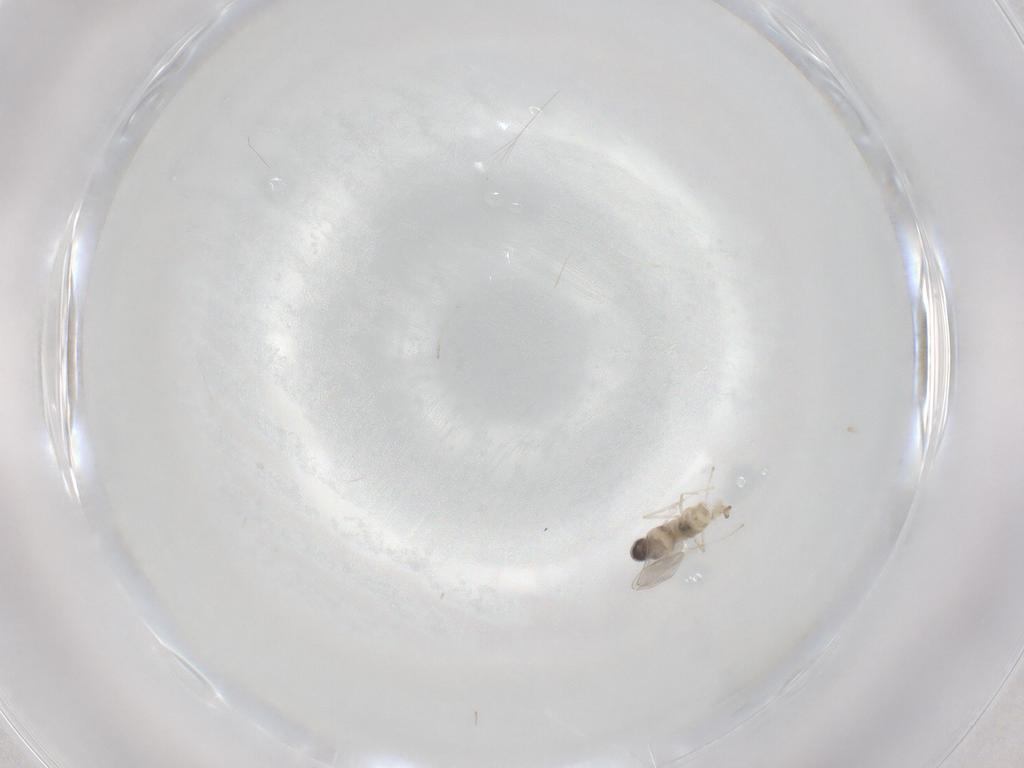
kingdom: Animalia
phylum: Arthropoda
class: Insecta
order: Diptera
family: Cecidomyiidae
